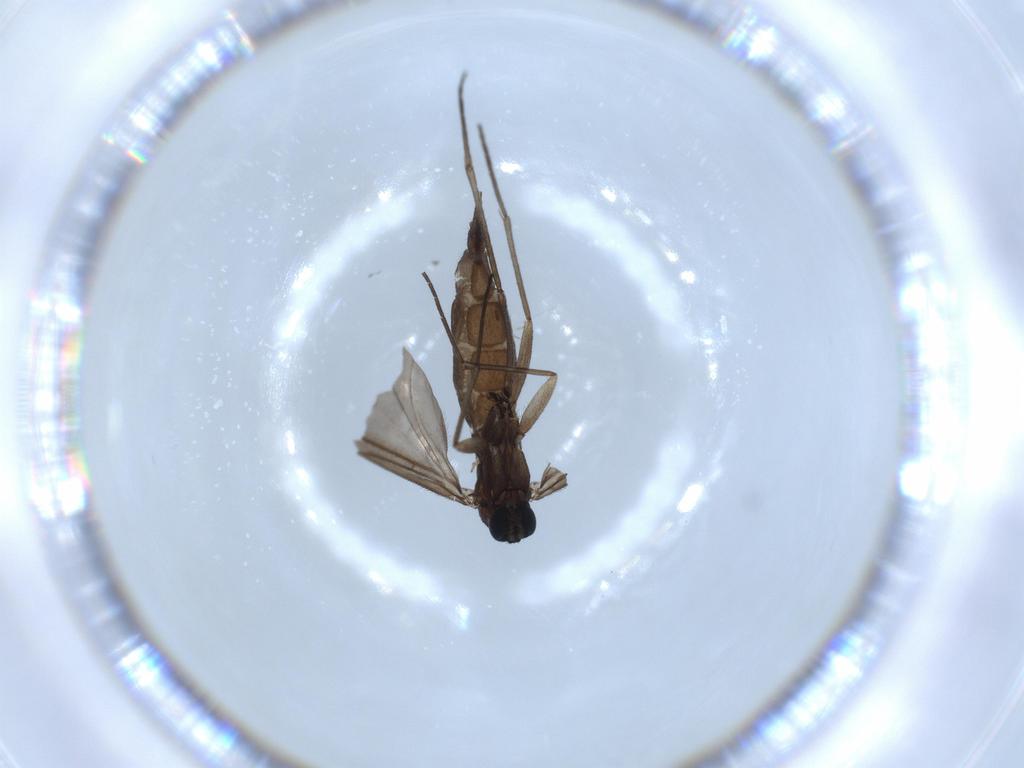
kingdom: Animalia
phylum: Arthropoda
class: Insecta
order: Diptera
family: Sciaridae
